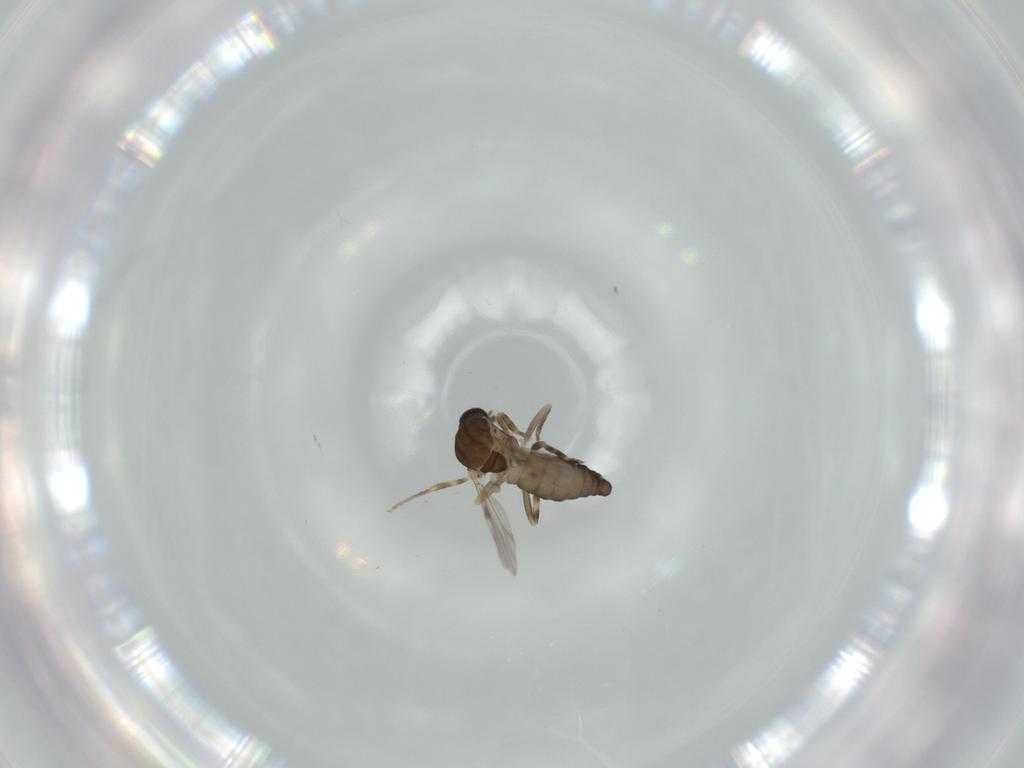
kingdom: Animalia
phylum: Arthropoda
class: Insecta
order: Diptera
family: Ceratopogonidae
